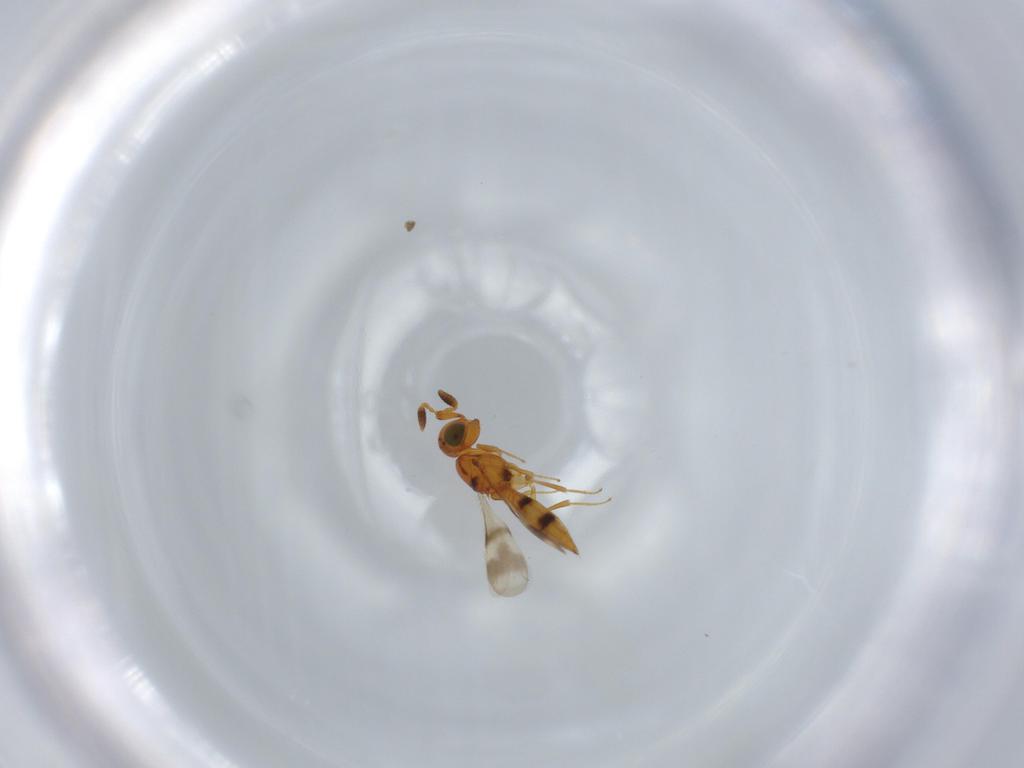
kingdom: Animalia
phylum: Arthropoda
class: Insecta
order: Hymenoptera
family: Scelionidae
